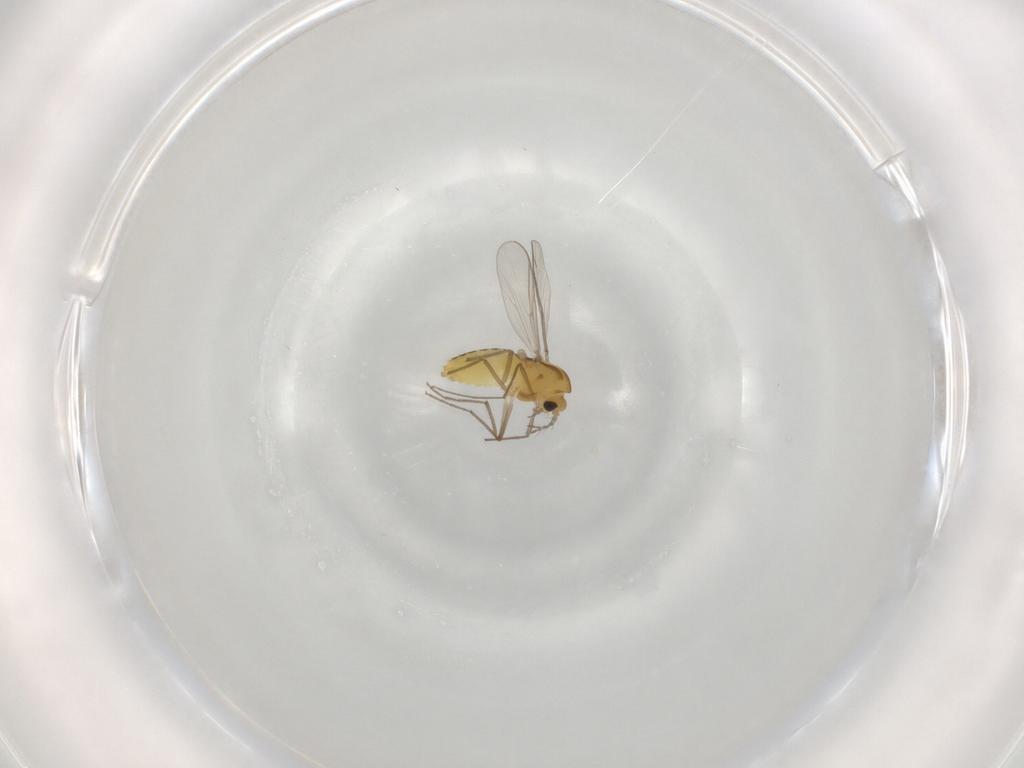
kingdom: Animalia
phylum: Arthropoda
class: Insecta
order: Diptera
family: Chironomidae
